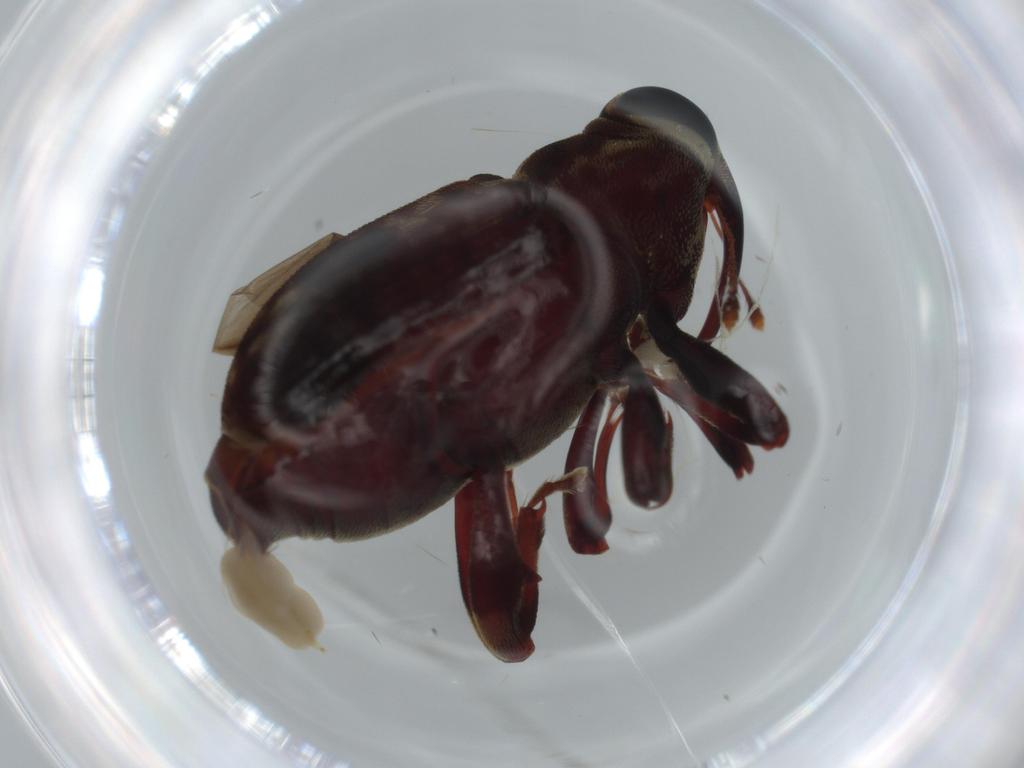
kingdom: Animalia
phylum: Arthropoda
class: Insecta
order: Coleoptera
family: Curculionidae
